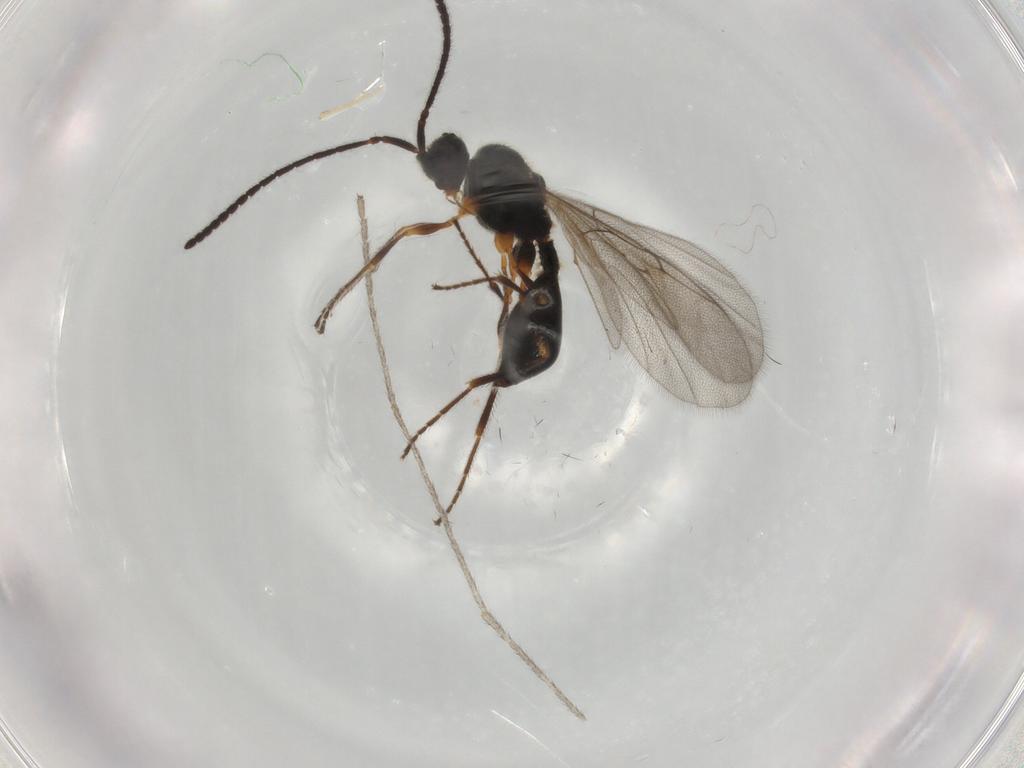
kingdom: Animalia
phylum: Arthropoda
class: Insecta
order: Hymenoptera
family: Diapriidae
